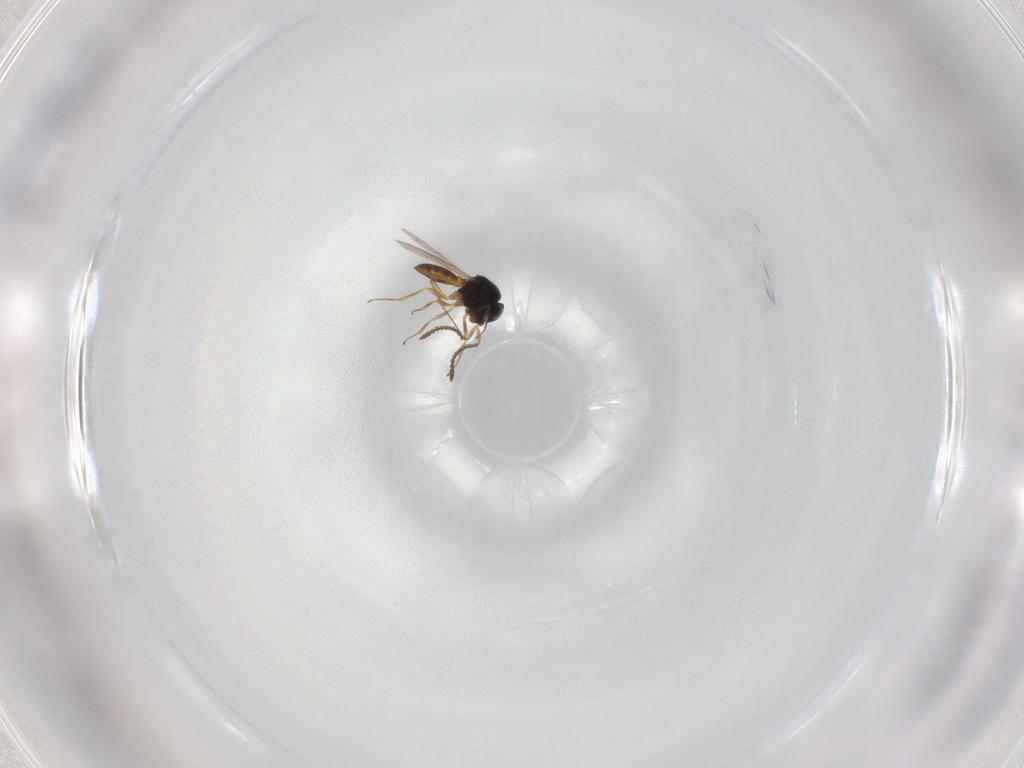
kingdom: Animalia
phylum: Arthropoda
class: Insecta
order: Hymenoptera
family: Scelionidae
